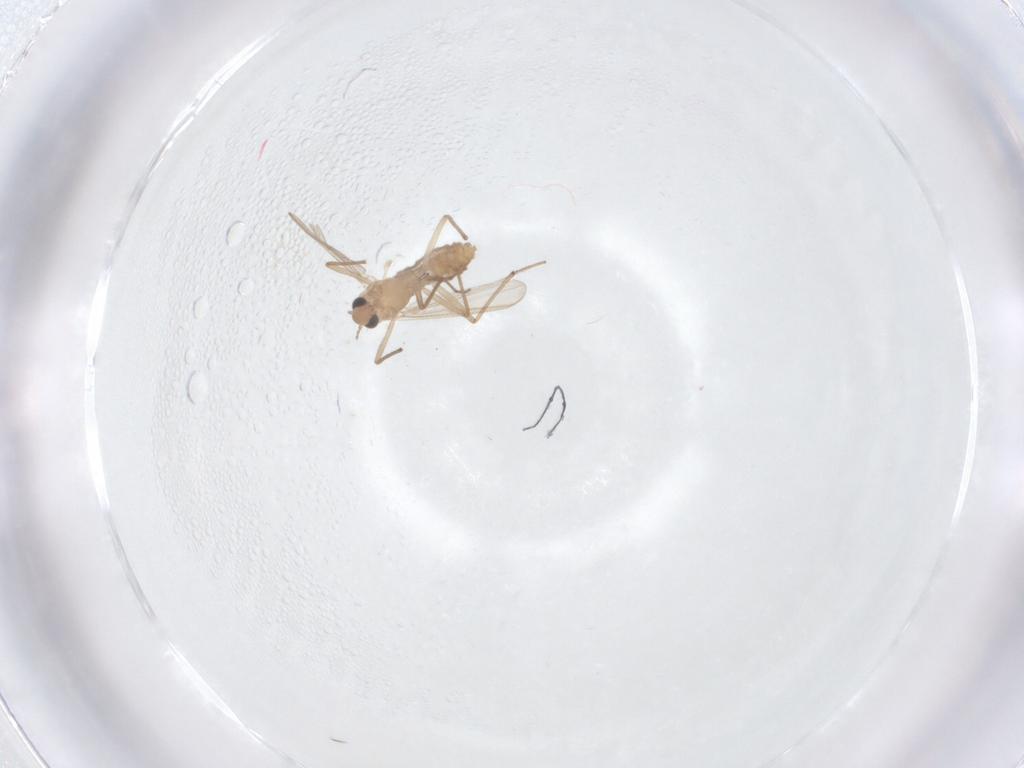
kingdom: Animalia
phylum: Arthropoda
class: Insecta
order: Diptera
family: Chironomidae
